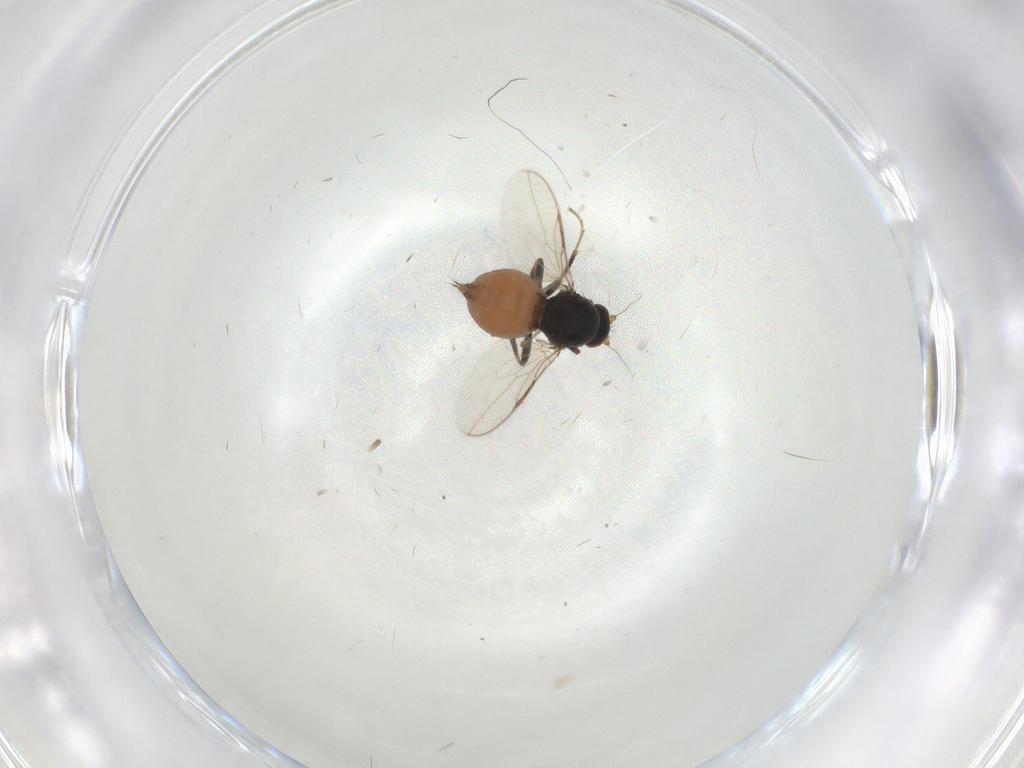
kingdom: Animalia
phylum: Arthropoda
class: Insecta
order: Diptera
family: Sphaeroceridae
